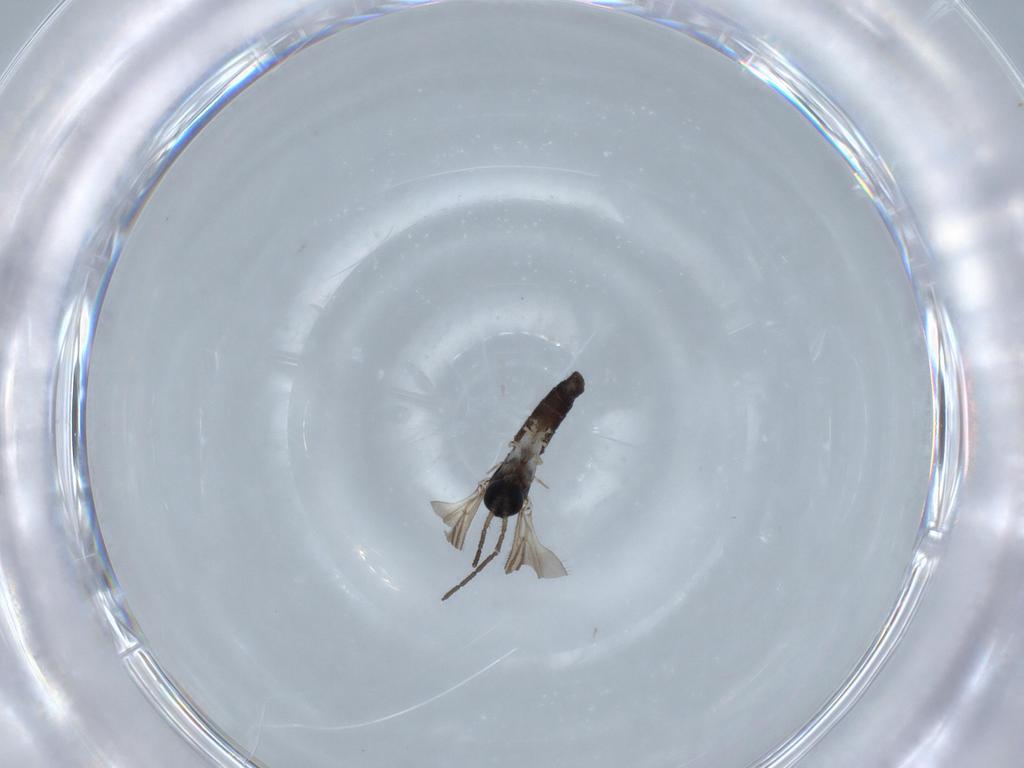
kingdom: Animalia
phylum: Arthropoda
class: Insecta
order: Diptera
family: Sciaridae
